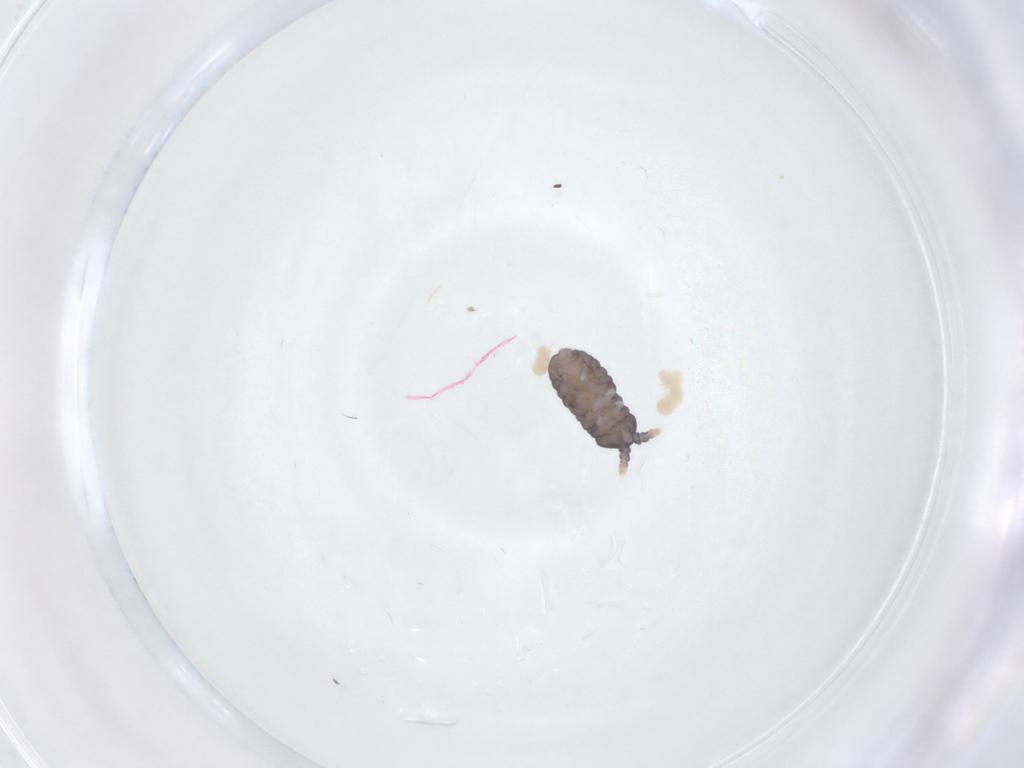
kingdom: Animalia
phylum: Arthropoda
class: Collembola
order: Poduromorpha
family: Neanuridae
